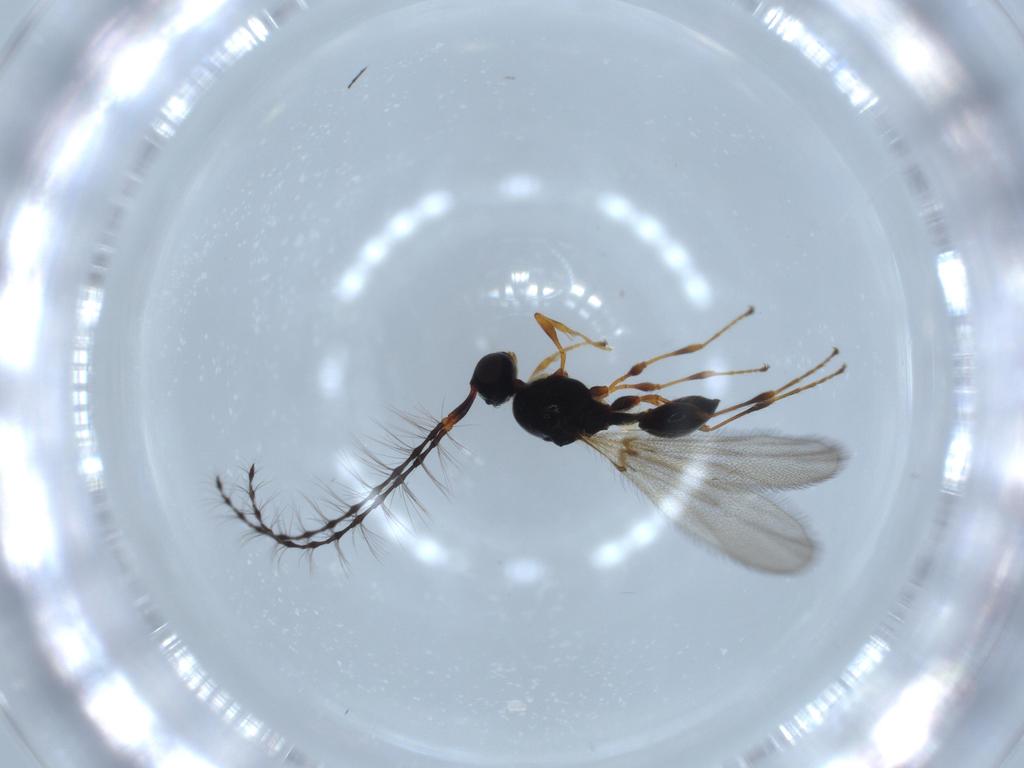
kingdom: Animalia
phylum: Arthropoda
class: Insecta
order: Hymenoptera
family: Diapriidae
